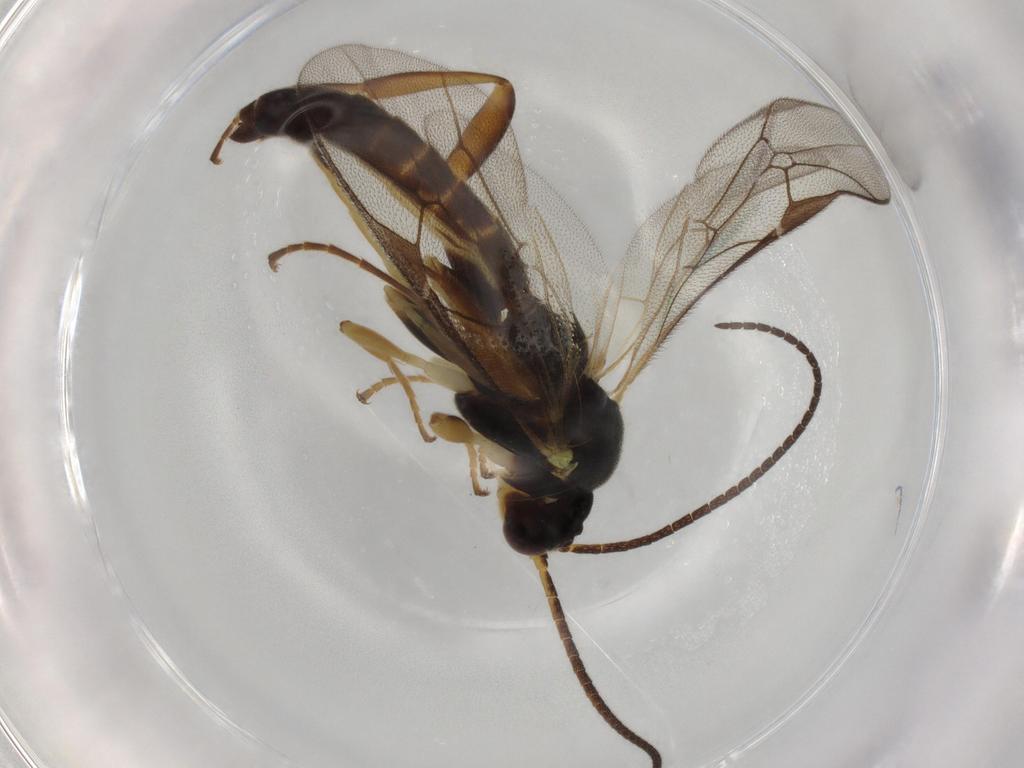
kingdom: Animalia
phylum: Arthropoda
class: Insecta
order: Hymenoptera
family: Ichneumonidae
